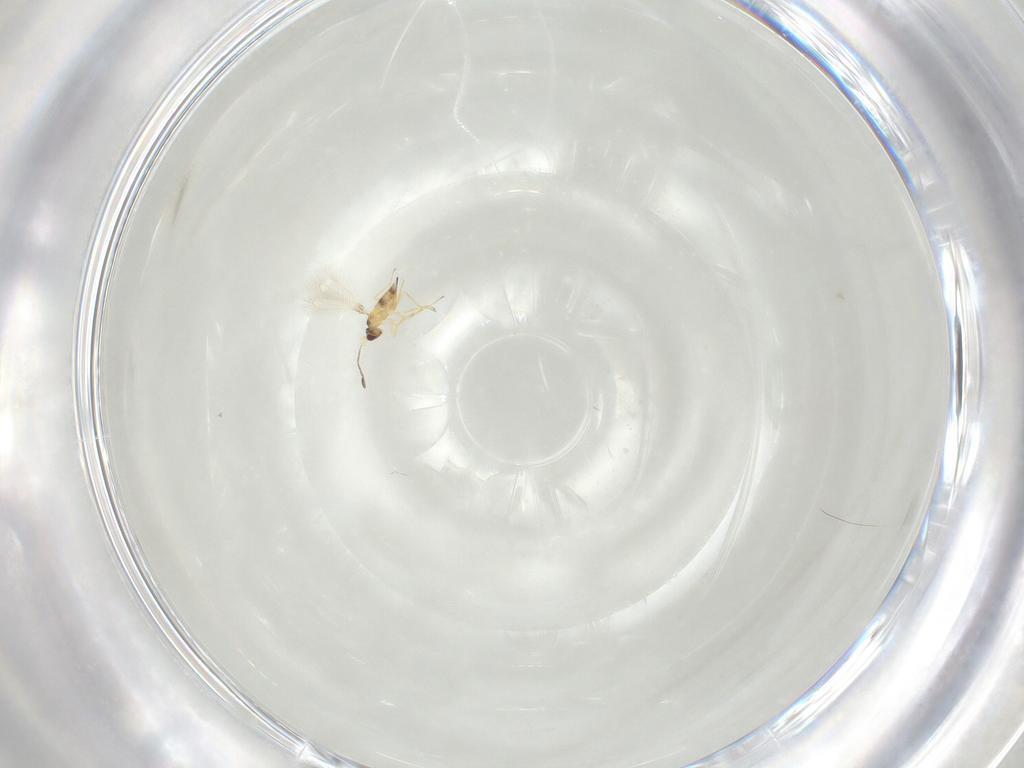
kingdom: Animalia
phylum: Arthropoda
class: Insecta
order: Hymenoptera
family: Mymaridae
